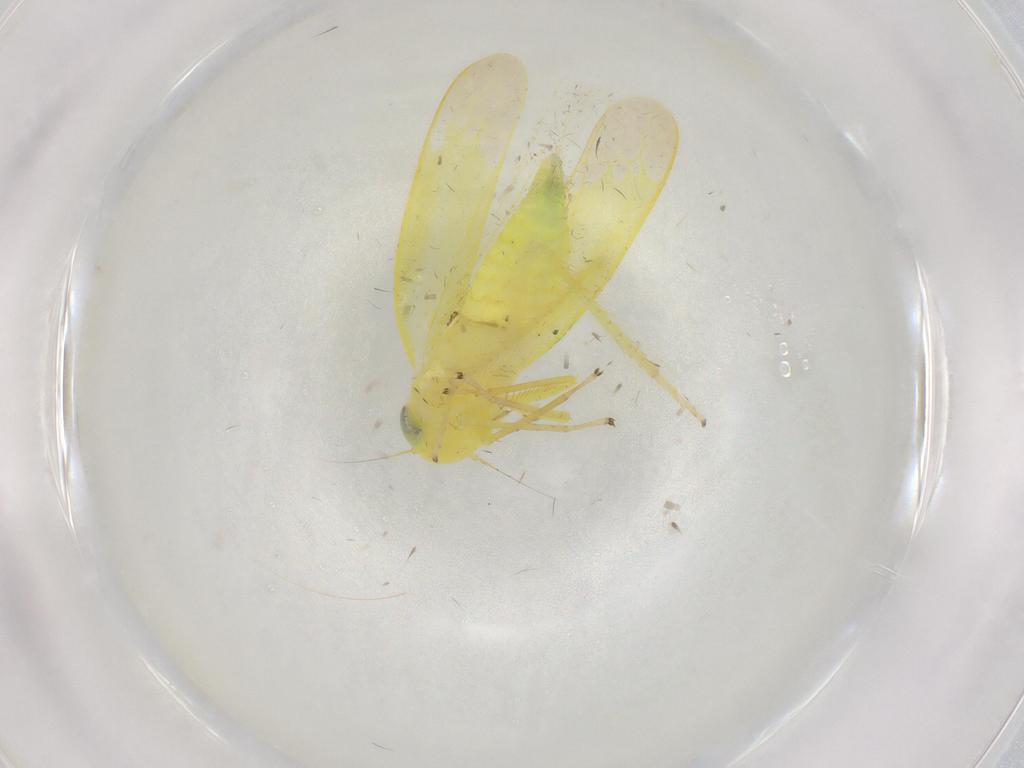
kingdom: Animalia
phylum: Arthropoda
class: Insecta
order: Hemiptera
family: Cicadellidae
